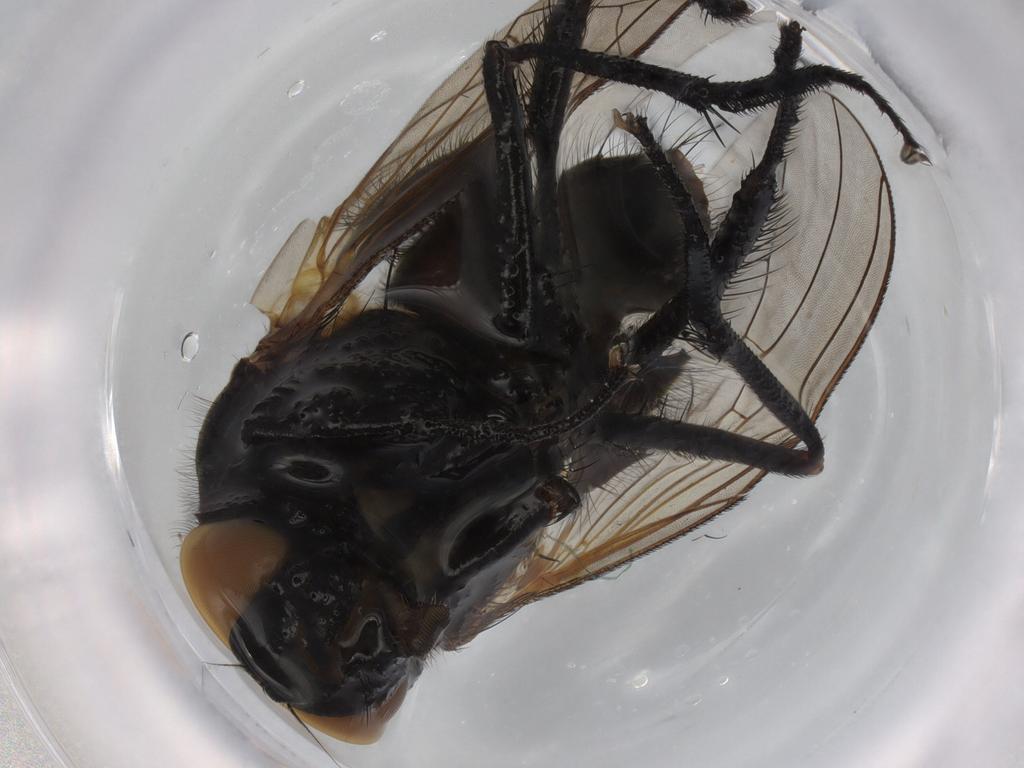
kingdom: Animalia
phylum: Arthropoda
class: Insecta
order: Diptera
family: Muscidae
